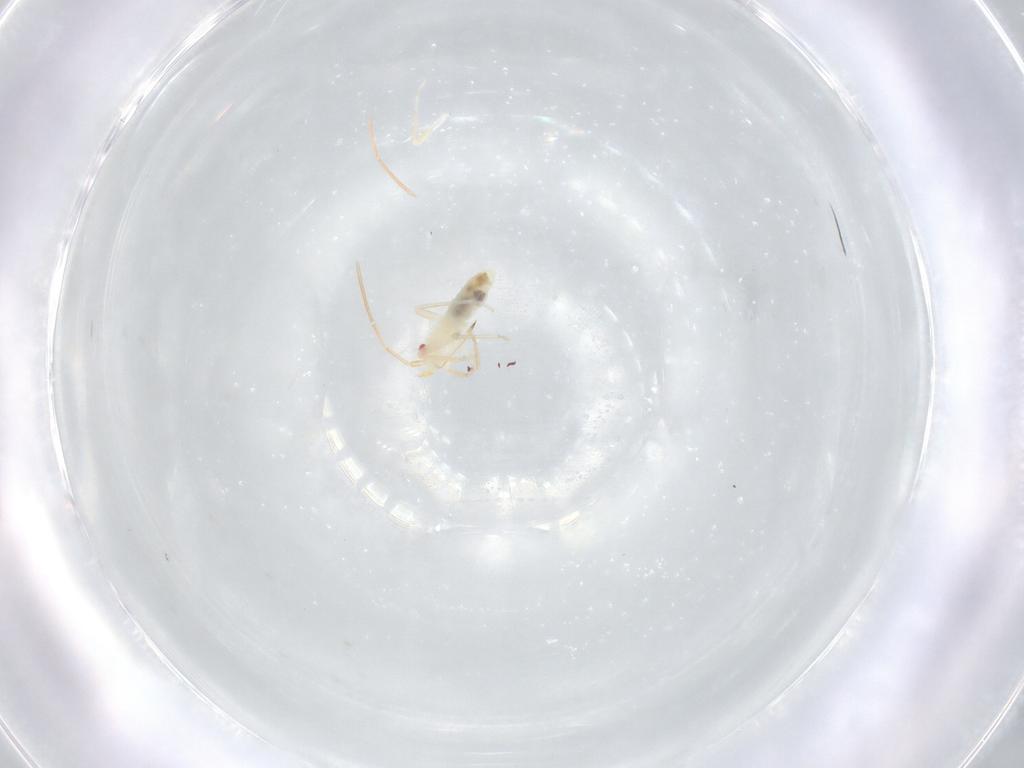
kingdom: Animalia
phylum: Arthropoda
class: Insecta
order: Hemiptera
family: Miridae
